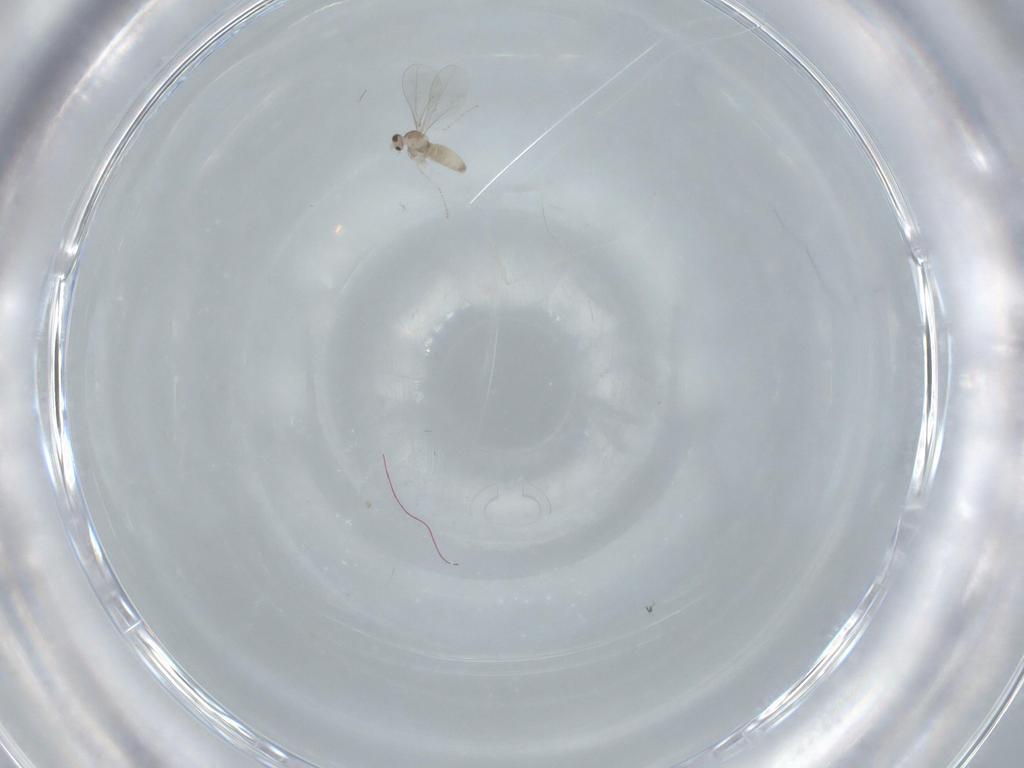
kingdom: Animalia
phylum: Arthropoda
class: Insecta
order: Diptera
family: Cecidomyiidae
